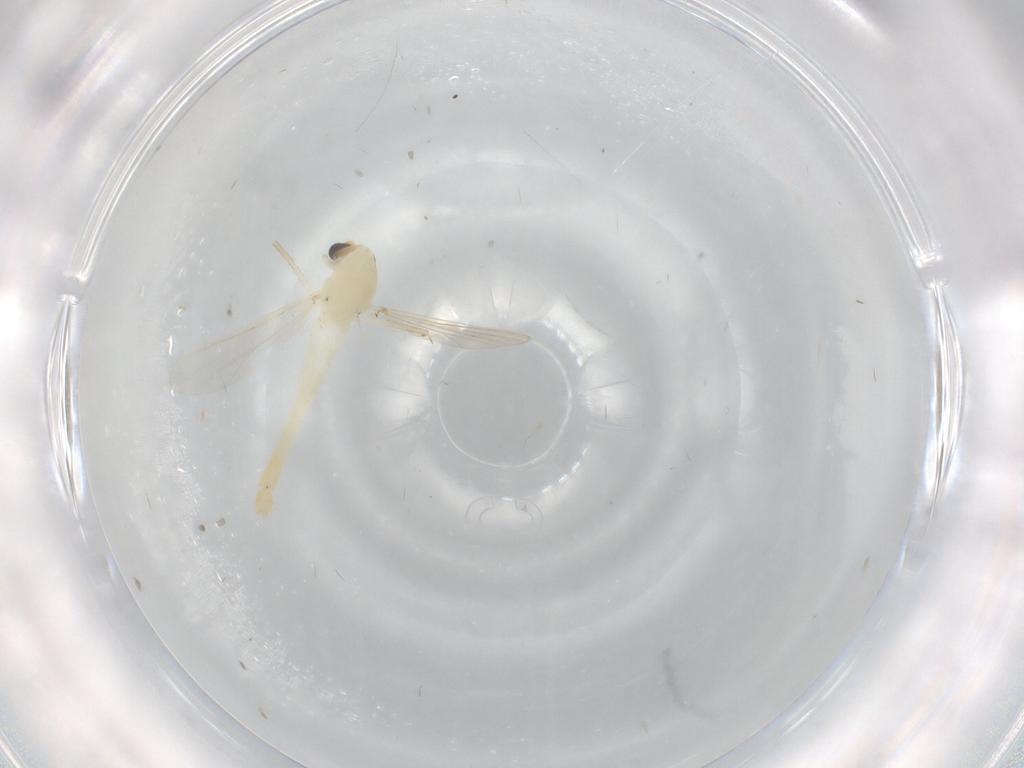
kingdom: Animalia
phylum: Arthropoda
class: Insecta
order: Diptera
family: Chironomidae
